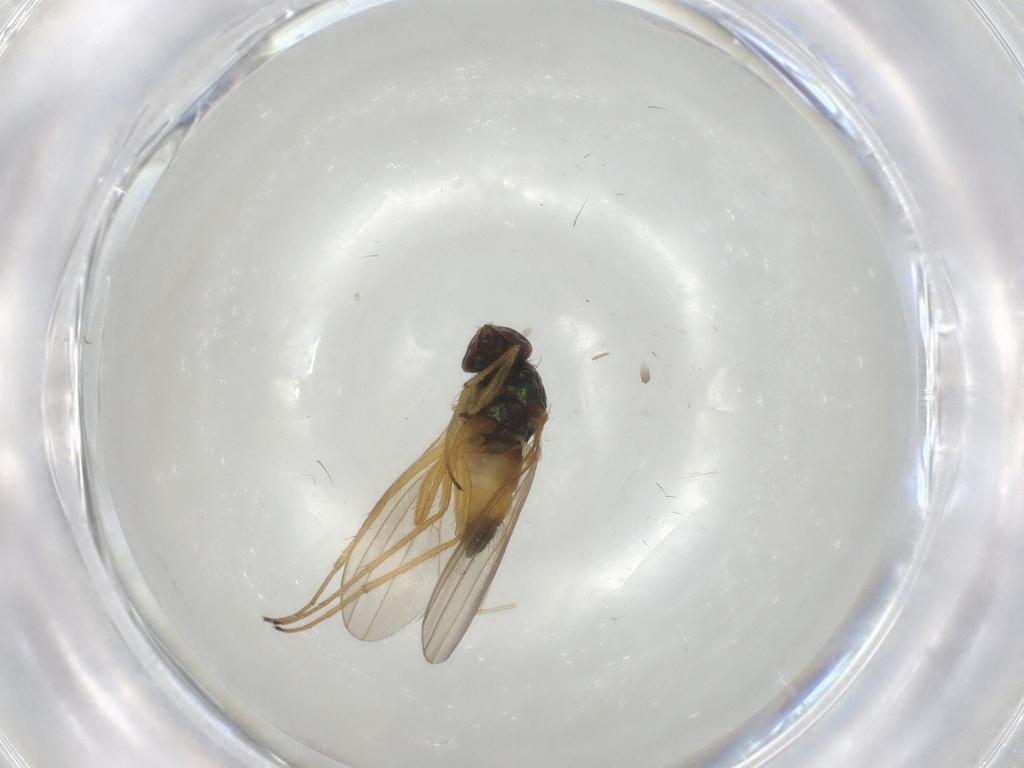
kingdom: Animalia
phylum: Arthropoda
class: Insecta
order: Diptera
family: Dolichopodidae
